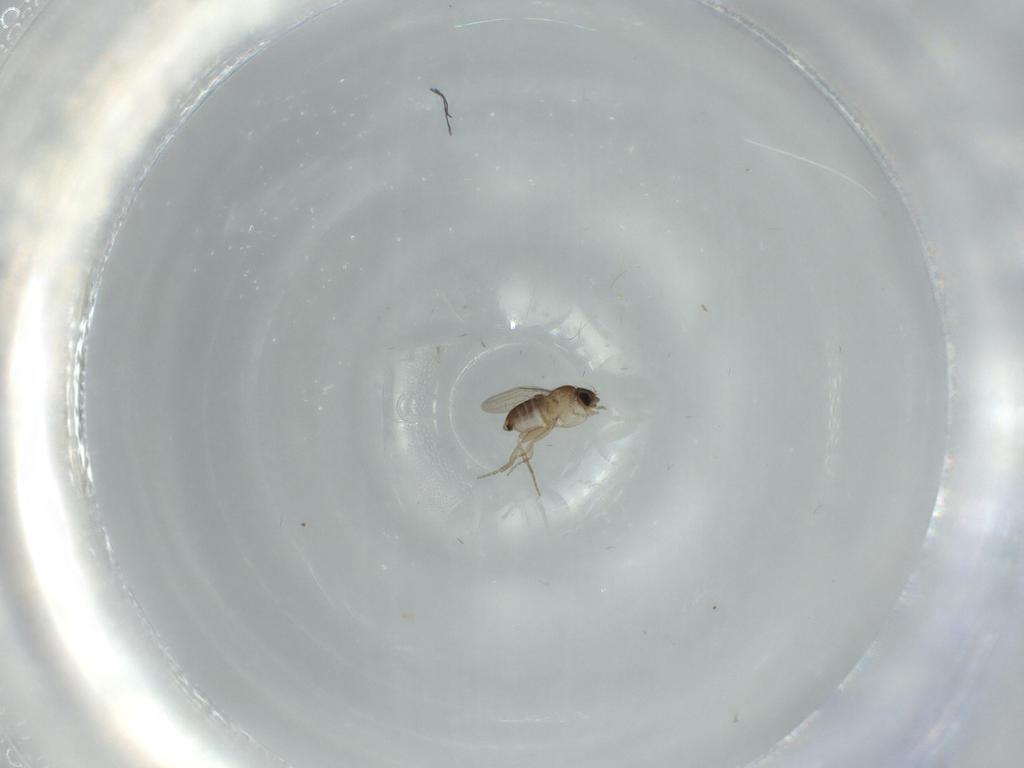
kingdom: Animalia
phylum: Arthropoda
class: Insecta
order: Diptera
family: Phoridae
